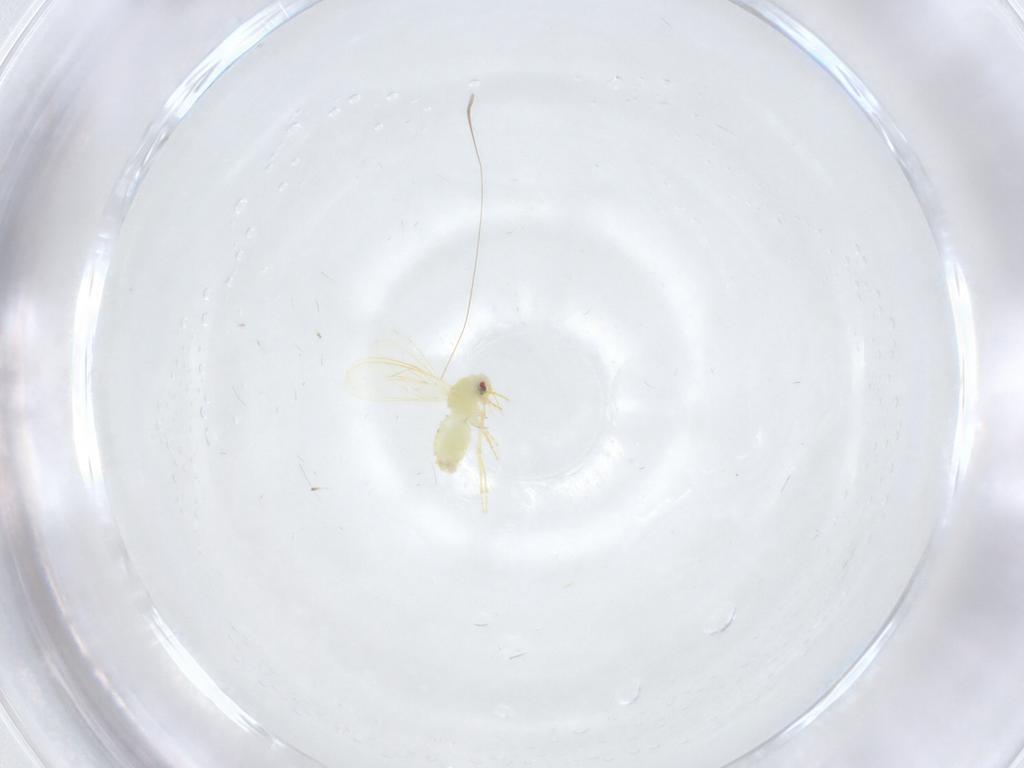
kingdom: Animalia
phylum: Arthropoda
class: Insecta
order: Hemiptera
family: Aleyrodidae
